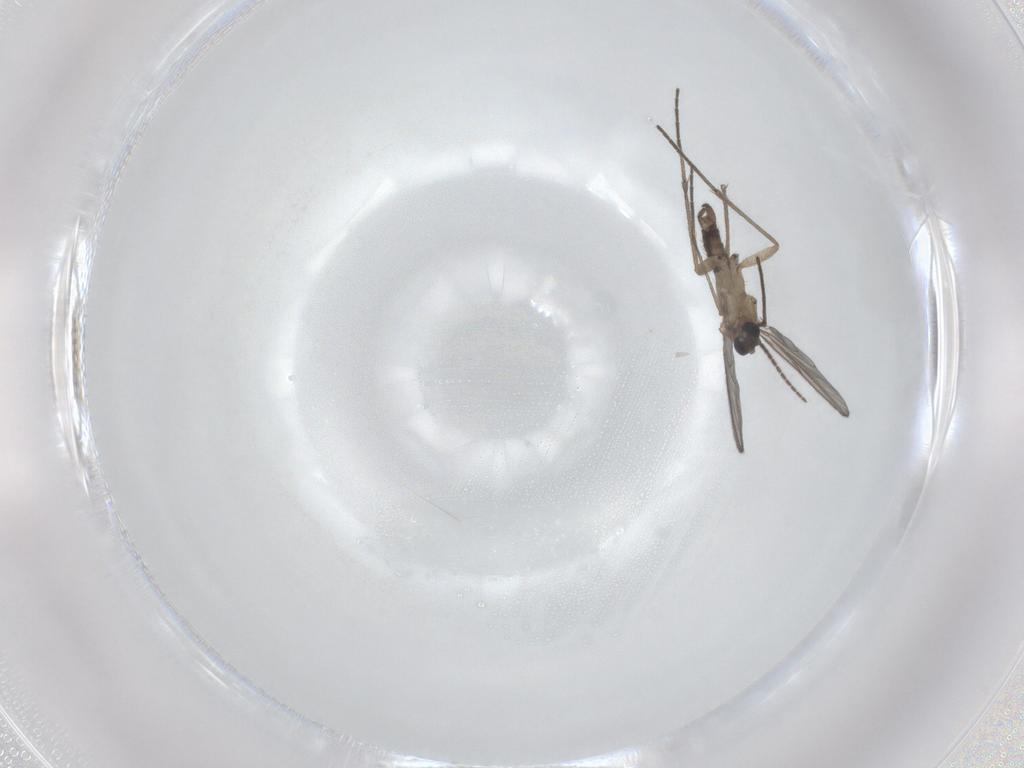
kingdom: Animalia
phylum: Arthropoda
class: Insecta
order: Diptera
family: Sciaridae
